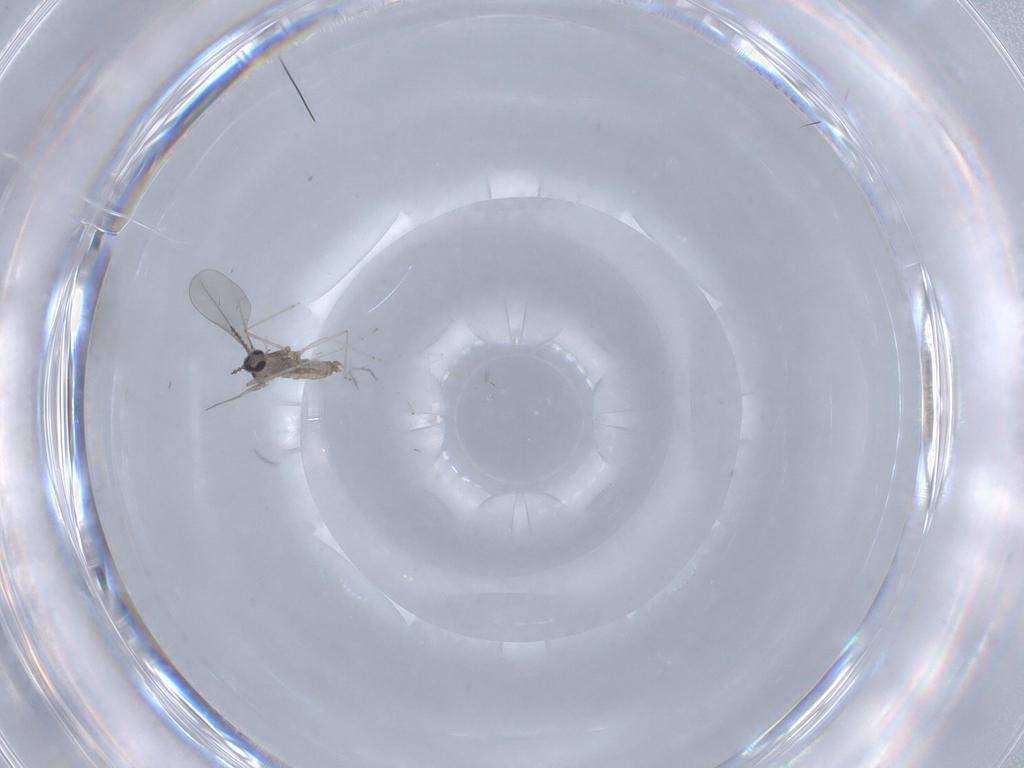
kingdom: Animalia
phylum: Arthropoda
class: Insecta
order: Diptera
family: Cecidomyiidae
